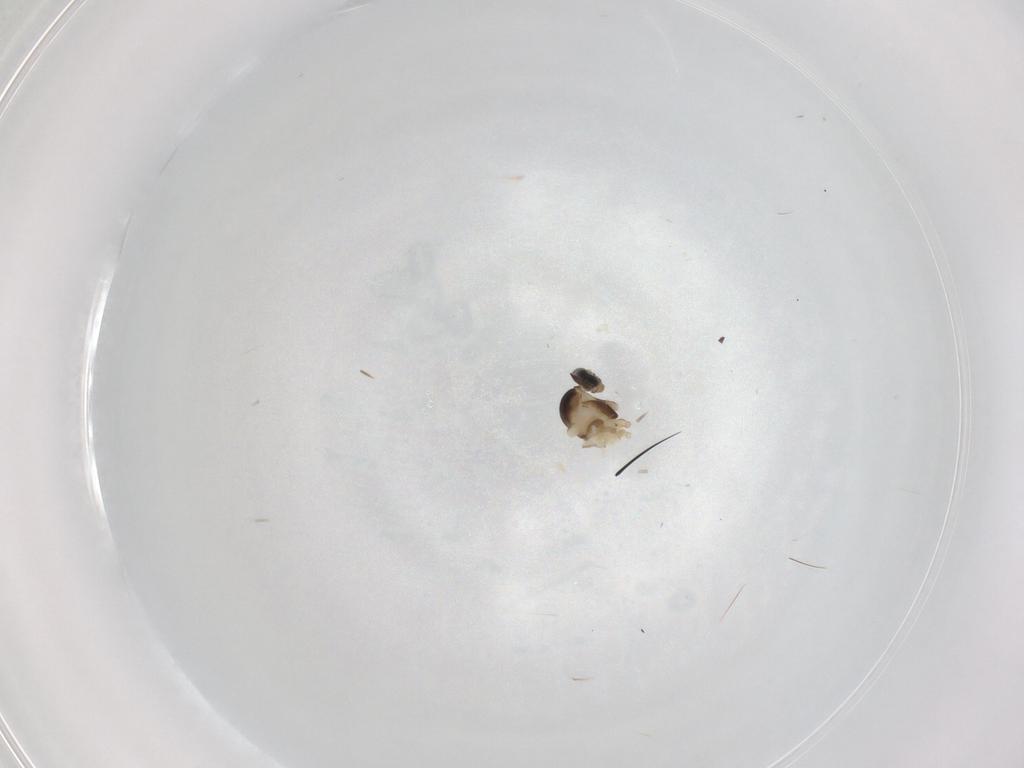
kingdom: Animalia
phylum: Arthropoda
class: Insecta
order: Diptera
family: Cecidomyiidae
